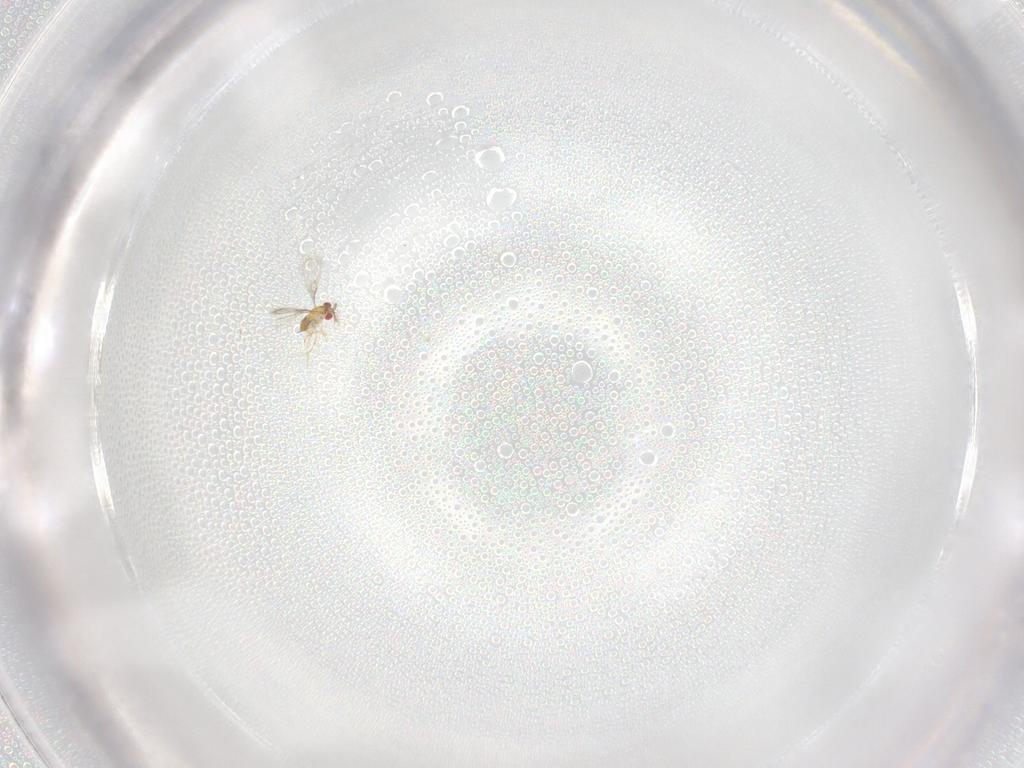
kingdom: Animalia
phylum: Arthropoda
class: Insecta
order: Hymenoptera
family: Trichogrammatidae
